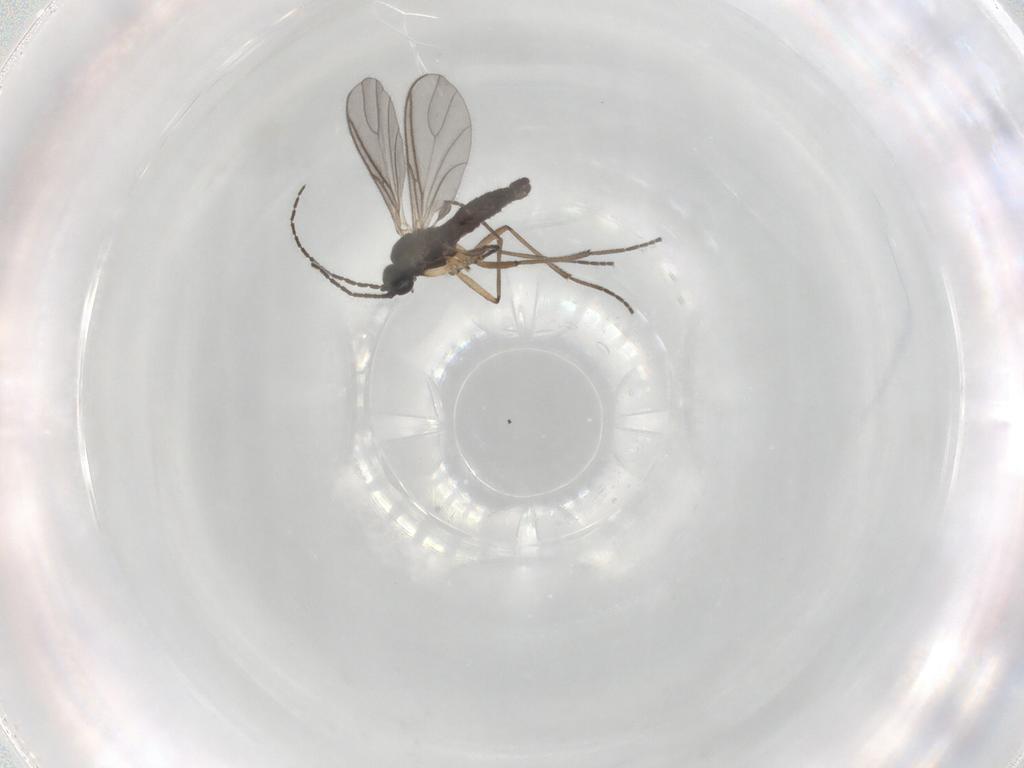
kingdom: Animalia
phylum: Arthropoda
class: Insecta
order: Diptera
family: Sciaridae
